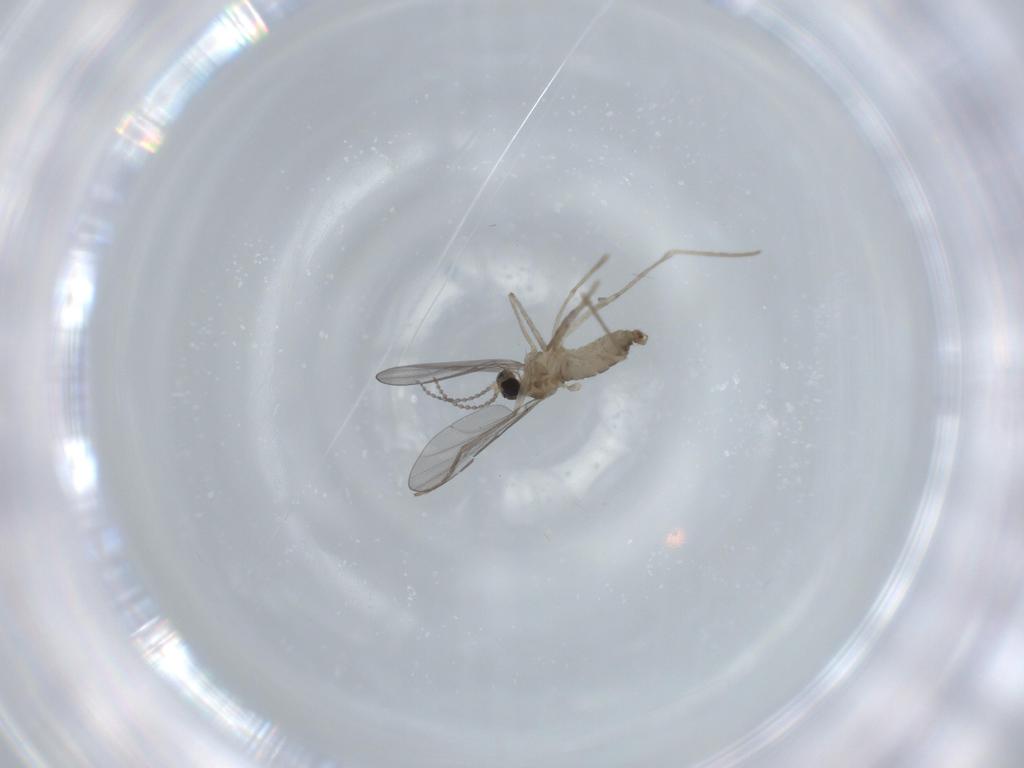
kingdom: Animalia
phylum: Arthropoda
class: Insecta
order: Diptera
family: Cecidomyiidae
